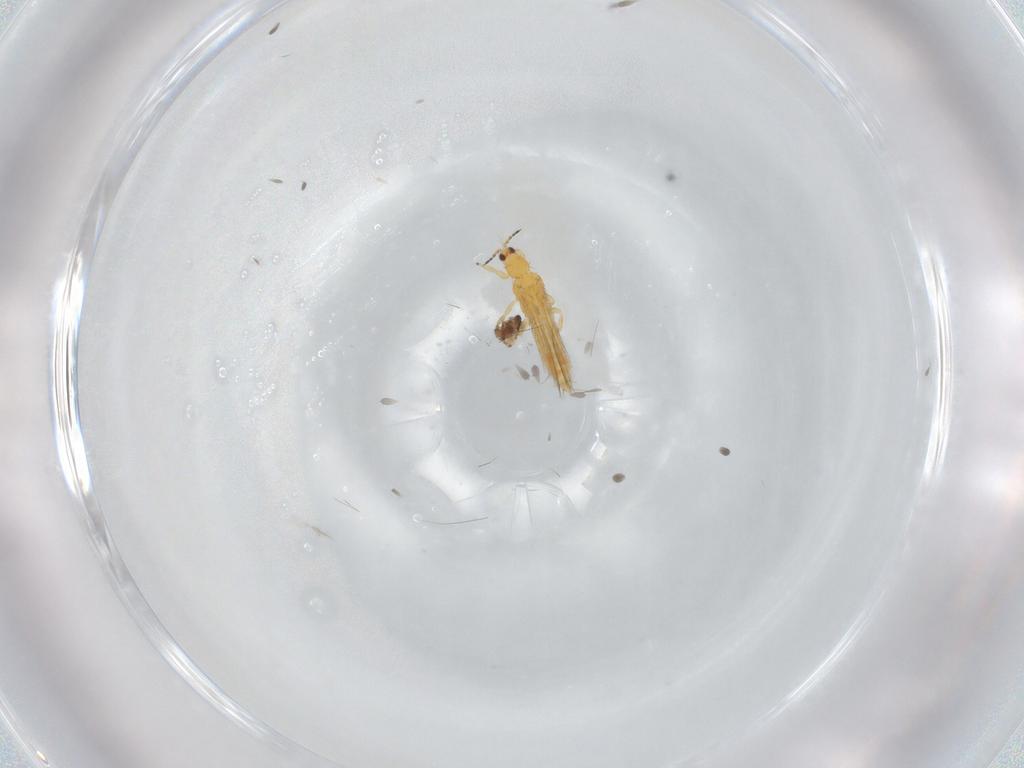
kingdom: Animalia
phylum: Arthropoda
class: Insecta
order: Thysanoptera
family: Thripidae
